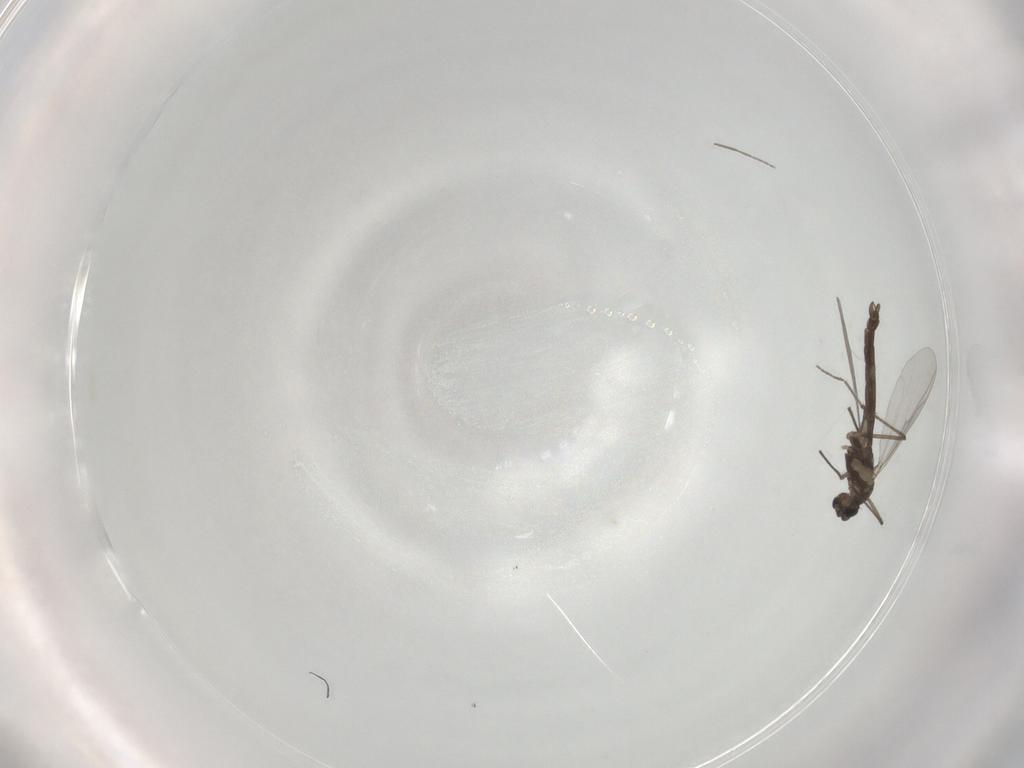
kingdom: Animalia
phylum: Arthropoda
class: Insecta
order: Diptera
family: Chironomidae
